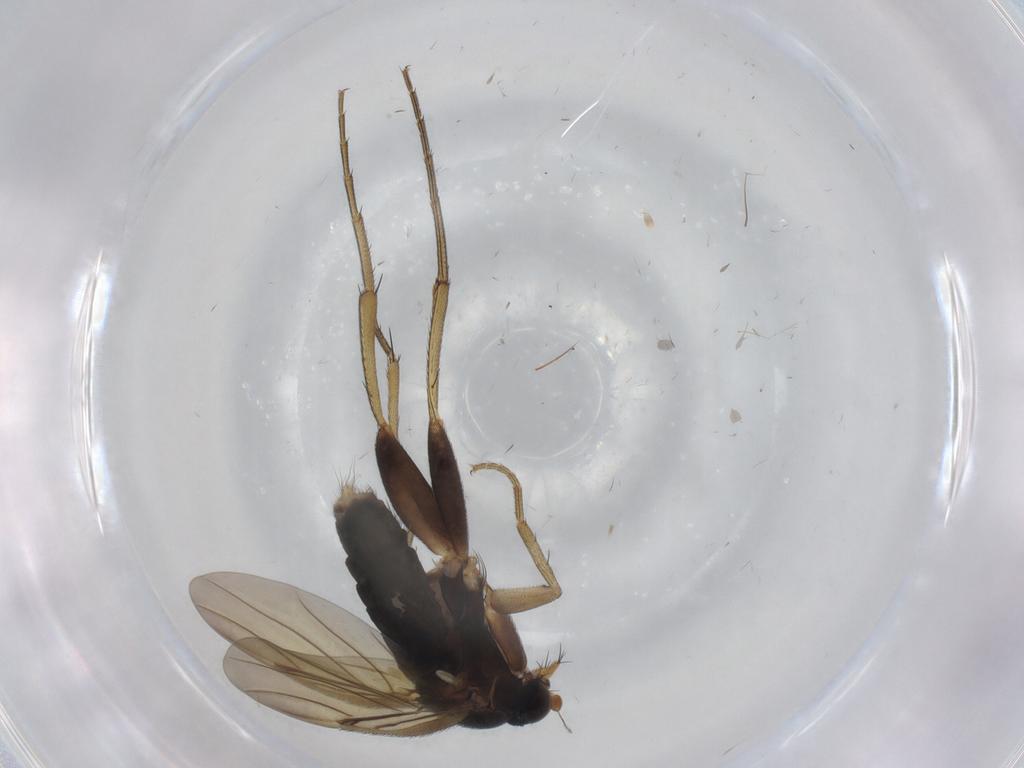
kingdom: Animalia
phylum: Arthropoda
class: Insecta
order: Diptera
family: Phoridae
